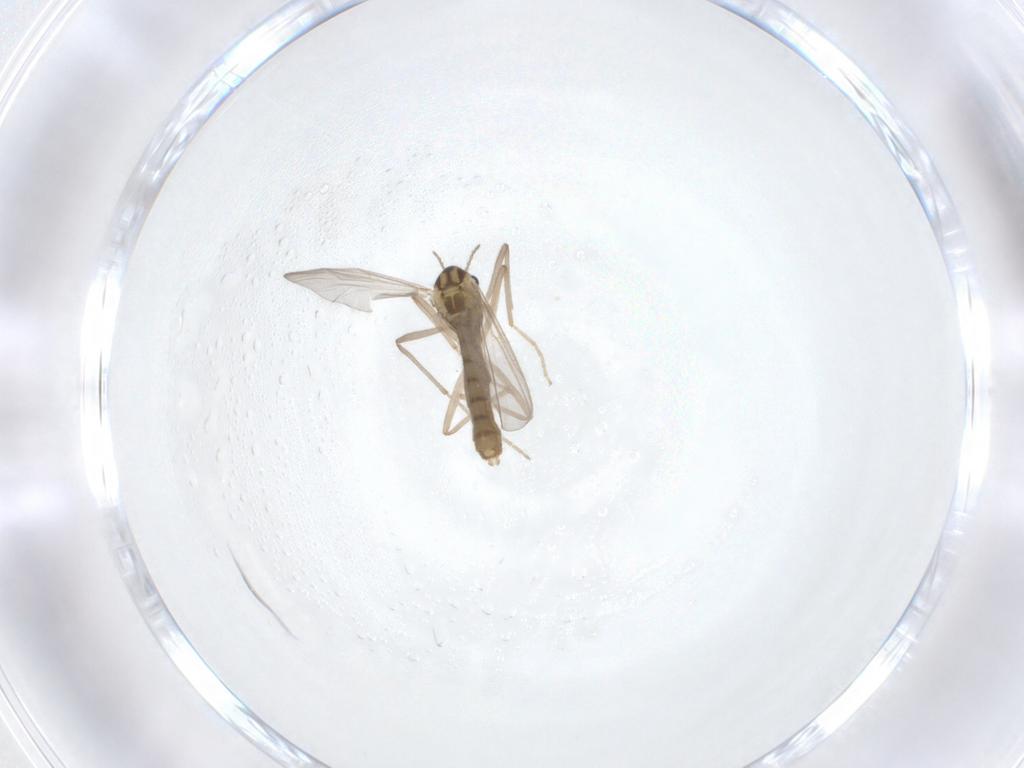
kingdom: Animalia
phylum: Arthropoda
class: Insecta
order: Diptera
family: Chironomidae
